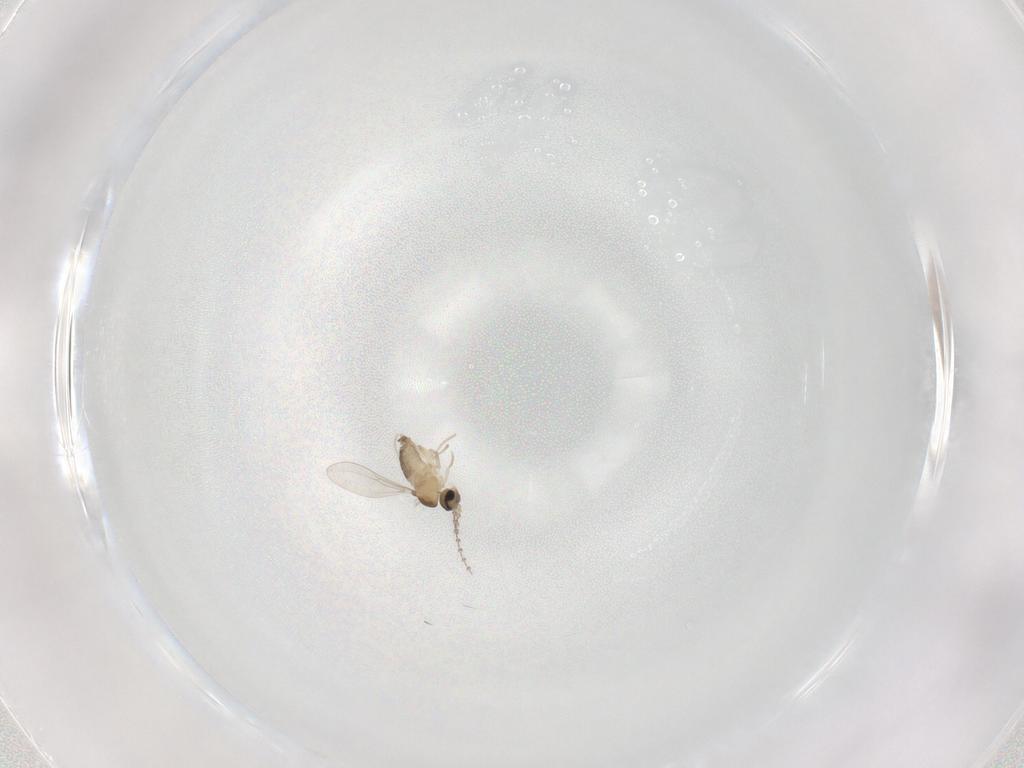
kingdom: Animalia
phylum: Arthropoda
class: Insecta
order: Diptera
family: Cecidomyiidae
